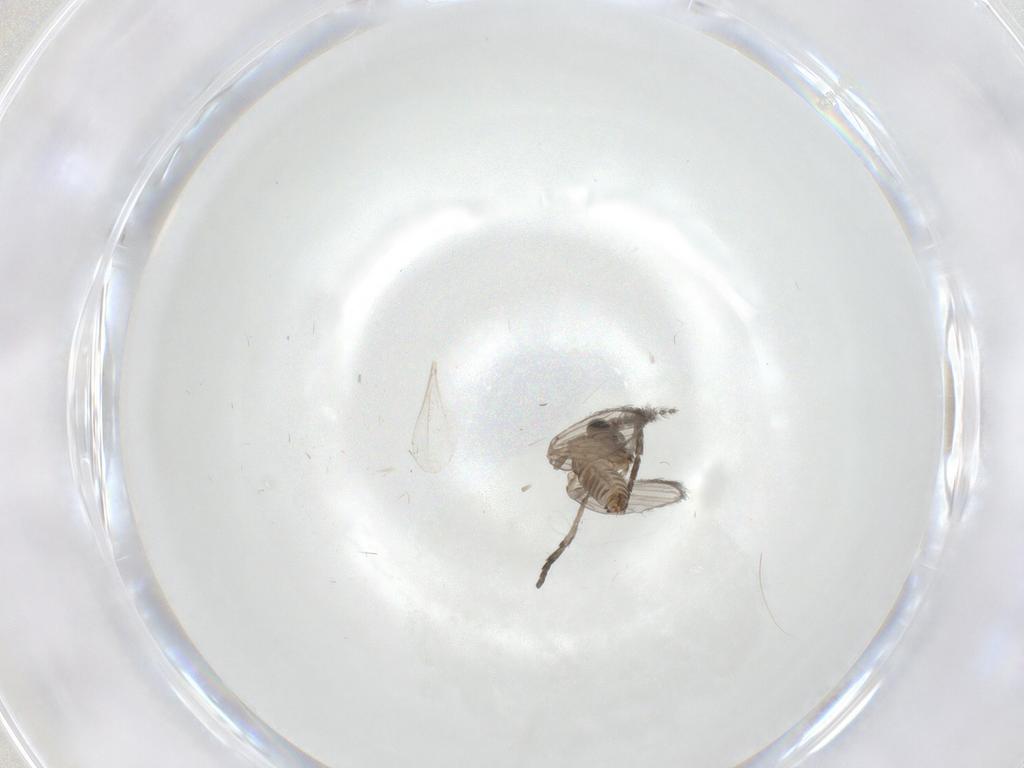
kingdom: Animalia
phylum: Arthropoda
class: Insecta
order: Diptera
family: Psychodidae
